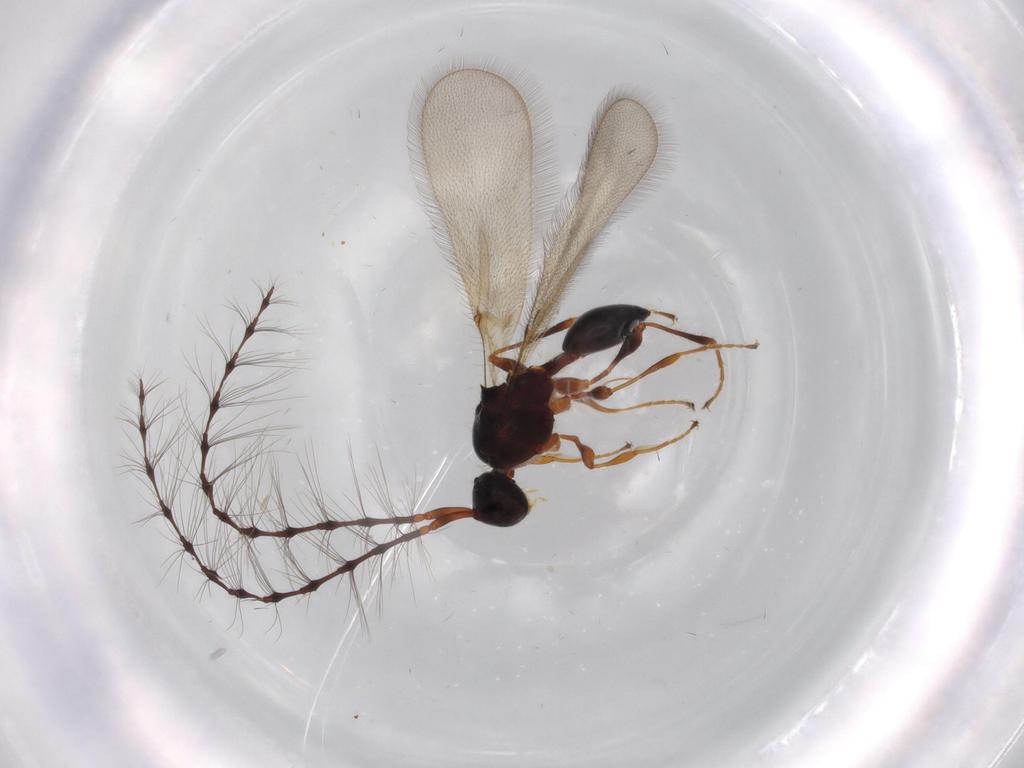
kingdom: Animalia
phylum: Arthropoda
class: Insecta
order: Hymenoptera
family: Diapriidae
